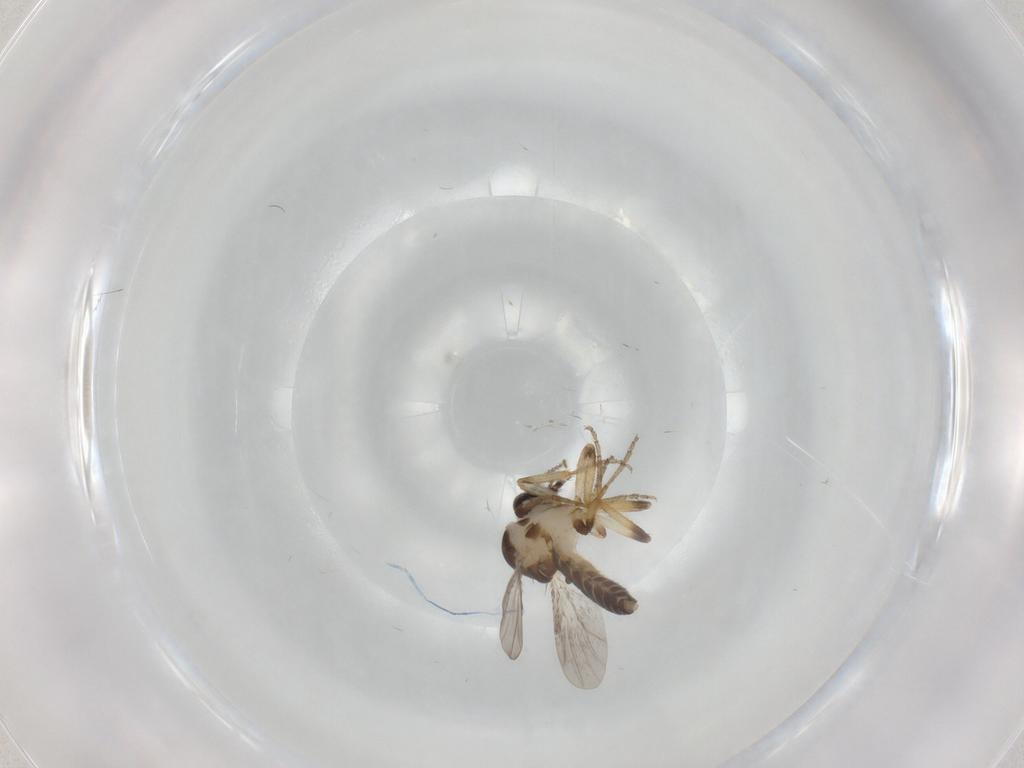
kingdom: Animalia
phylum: Arthropoda
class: Insecta
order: Diptera
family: Ceratopogonidae
